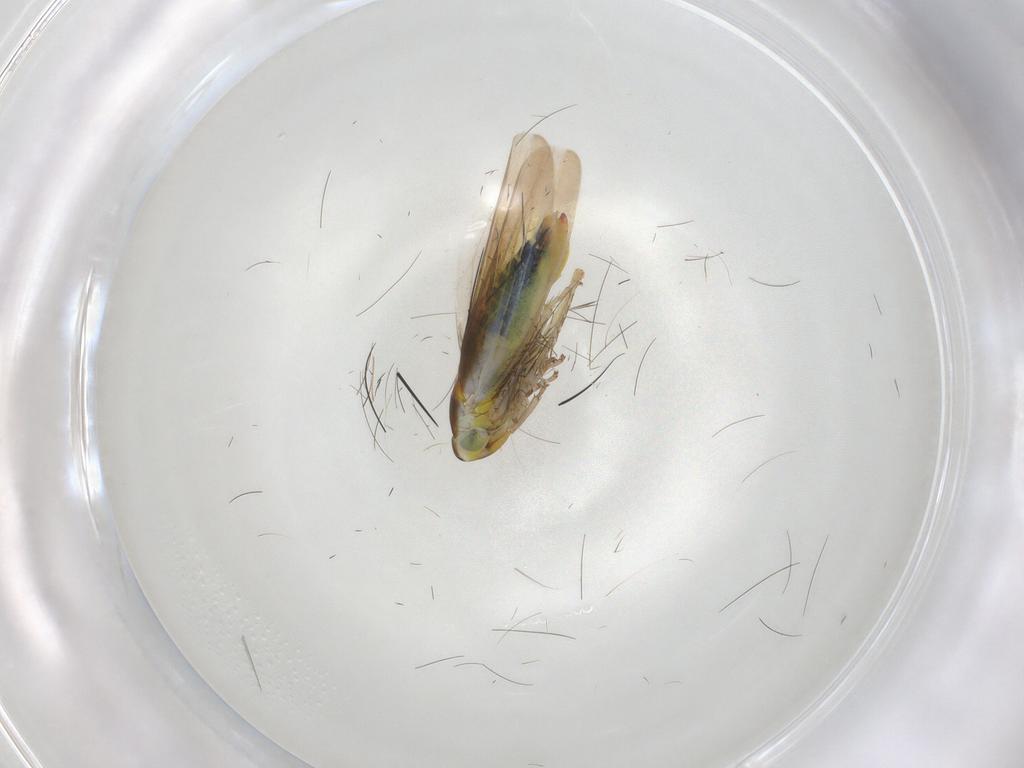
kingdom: Animalia
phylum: Arthropoda
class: Insecta
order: Hemiptera
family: Cicadellidae
